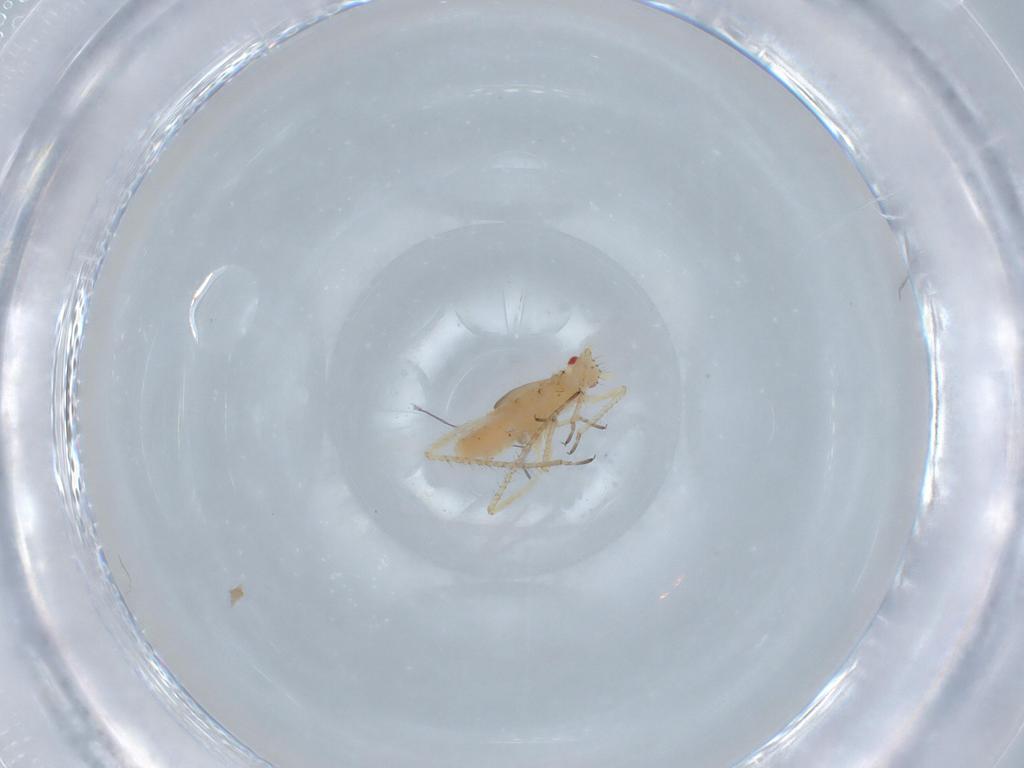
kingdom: Animalia
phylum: Arthropoda
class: Insecta
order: Hemiptera
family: Aphididae
